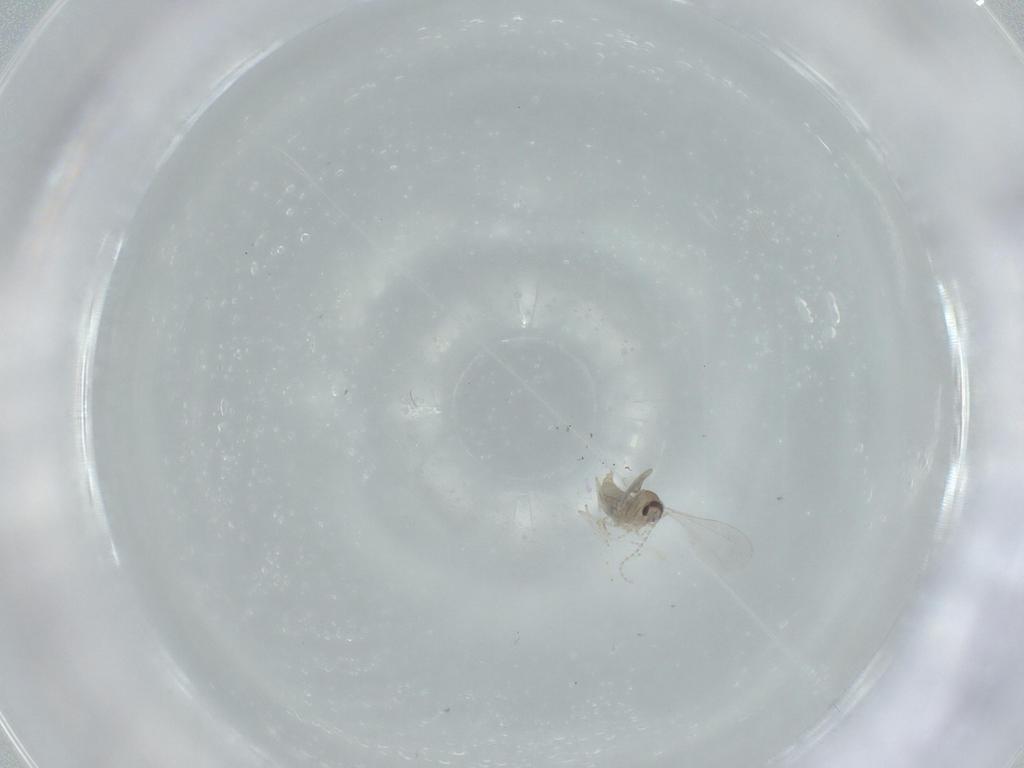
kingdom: Animalia
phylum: Arthropoda
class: Insecta
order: Diptera
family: Cecidomyiidae
